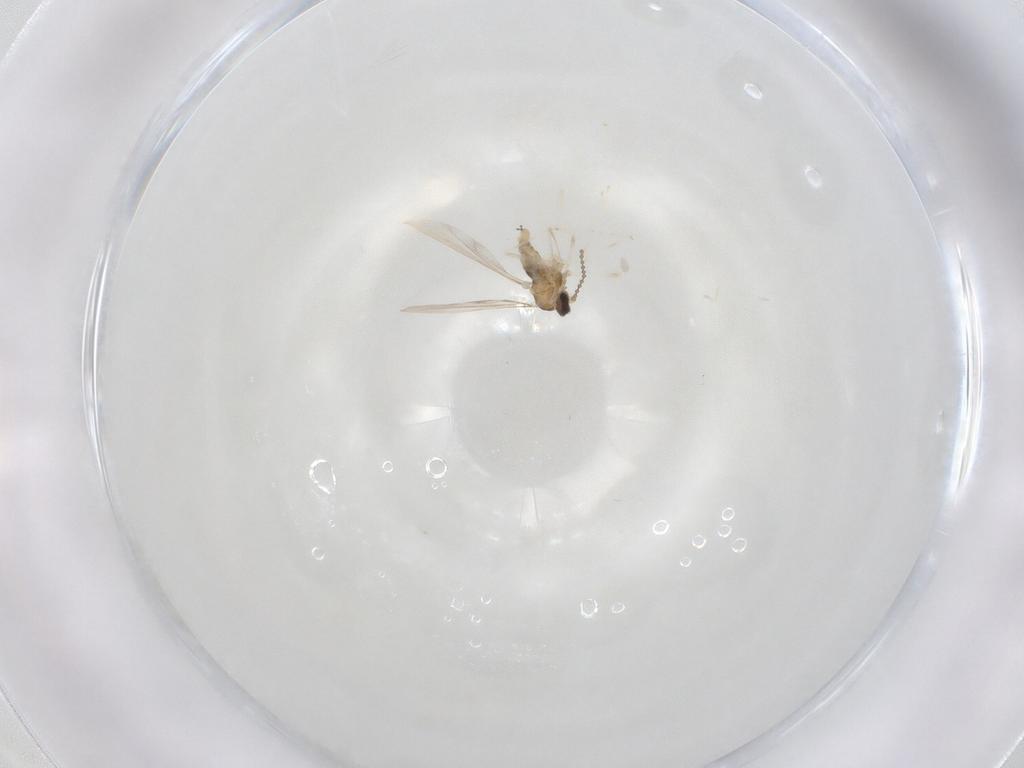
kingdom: Animalia
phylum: Arthropoda
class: Insecta
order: Diptera
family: Cecidomyiidae
